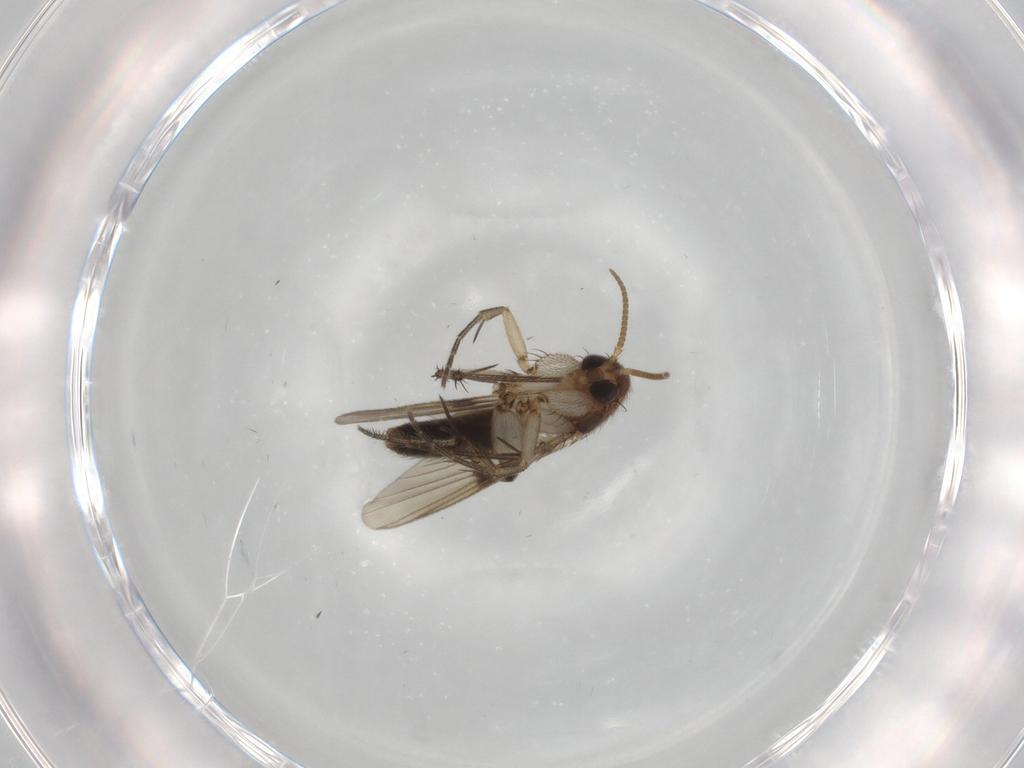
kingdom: Animalia
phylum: Arthropoda
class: Insecta
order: Diptera
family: Mycetophilidae
